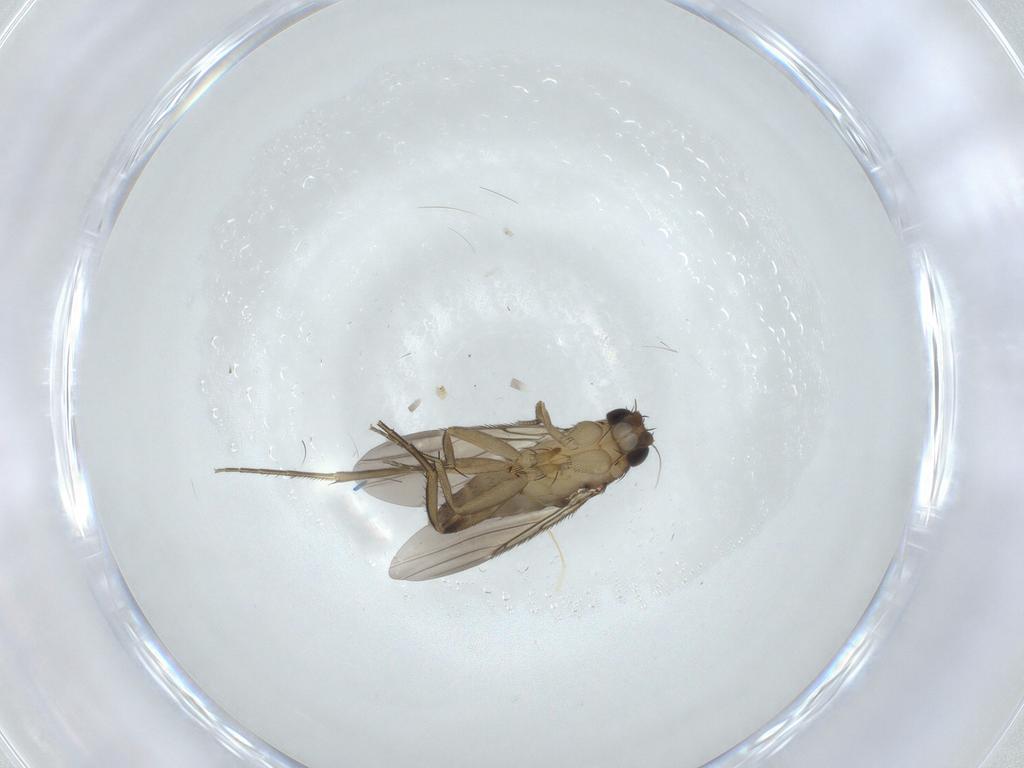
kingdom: Animalia
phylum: Arthropoda
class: Insecta
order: Diptera
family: Phoridae
